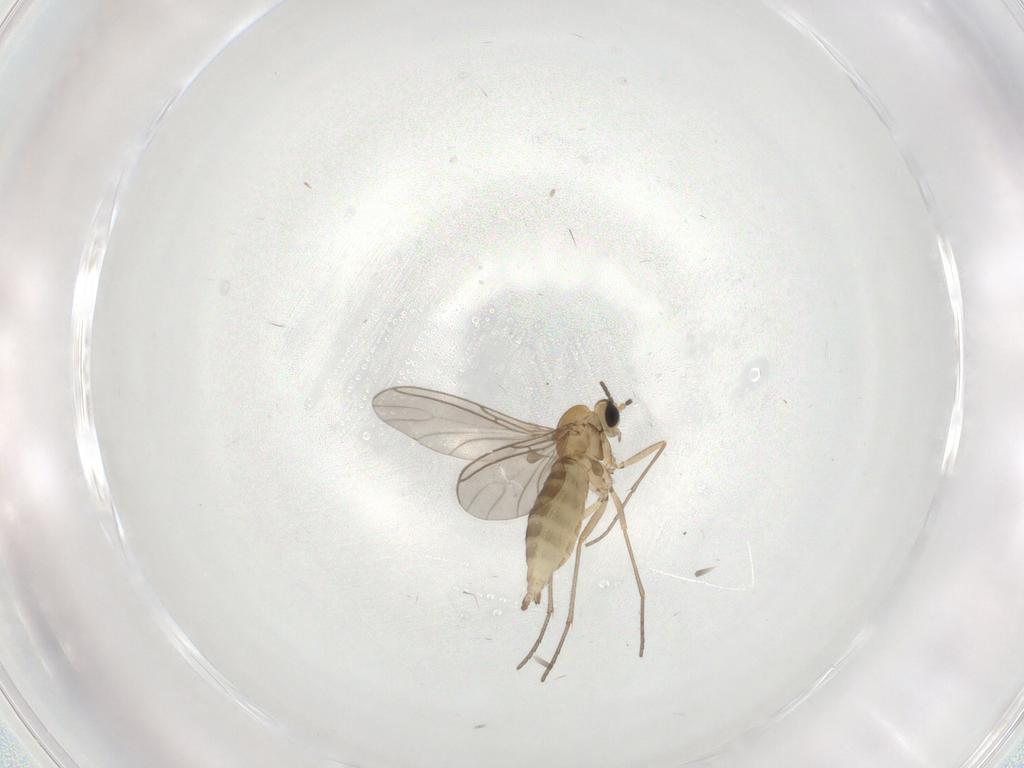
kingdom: Animalia
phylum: Arthropoda
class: Insecta
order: Diptera
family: Sciaridae
